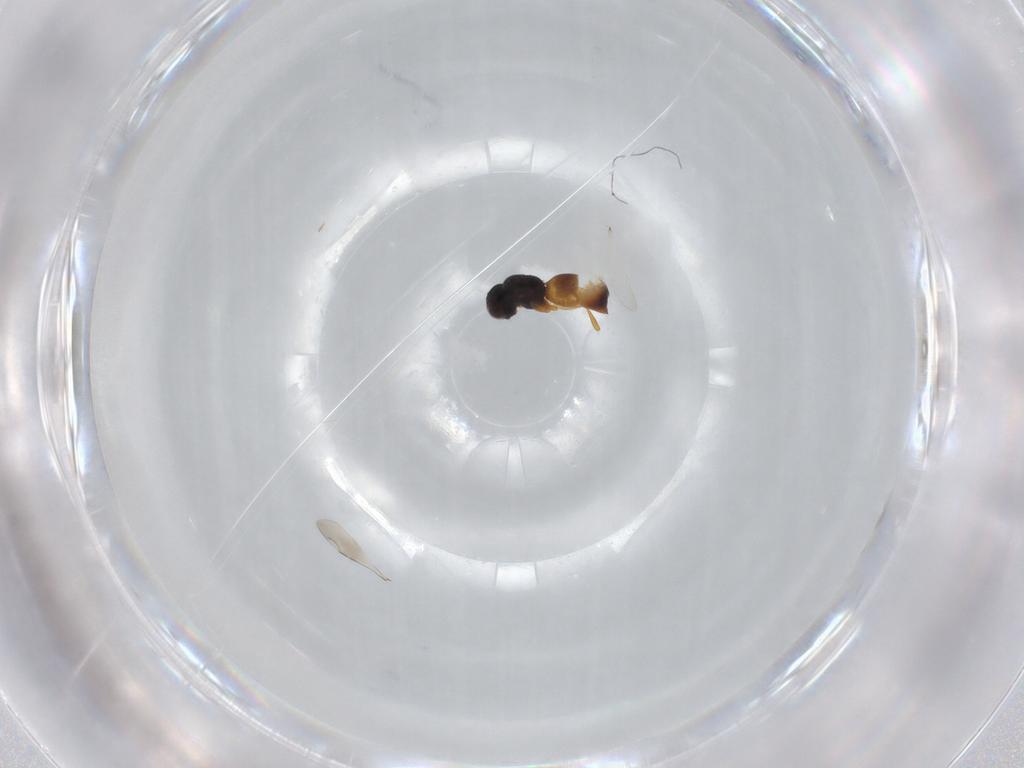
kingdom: Animalia
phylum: Arthropoda
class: Insecta
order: Hymenoptera
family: Ceraphronidae
